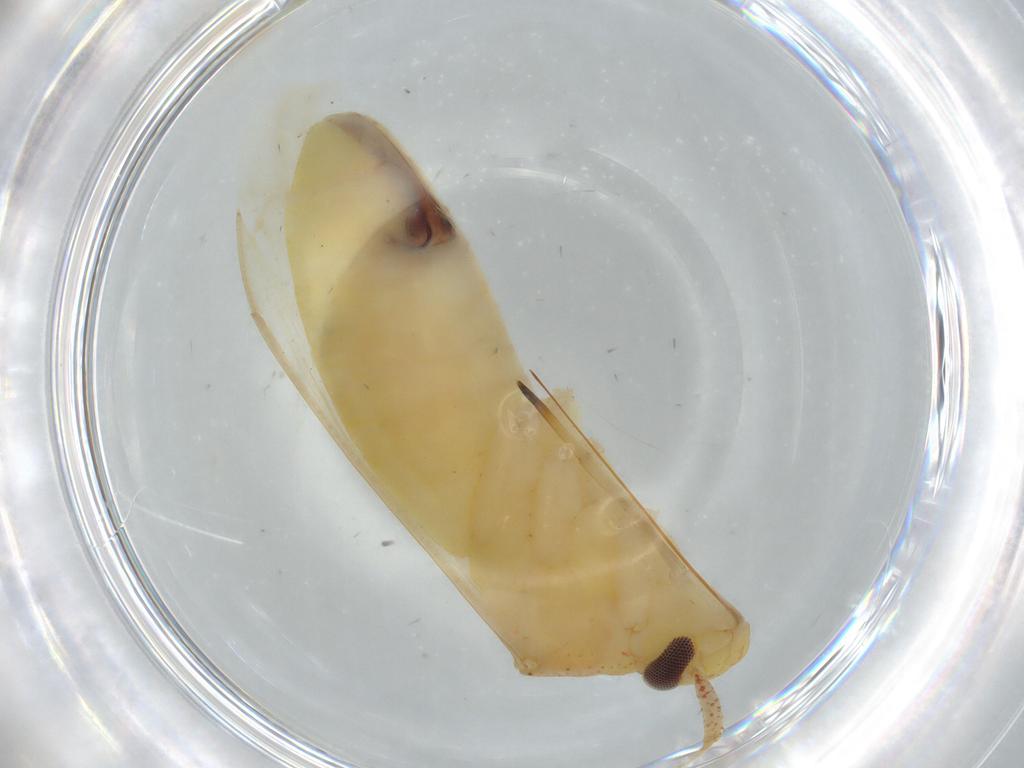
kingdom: Animalia
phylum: Arthropoda
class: Insecta
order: Hemiptera
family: Miridae
